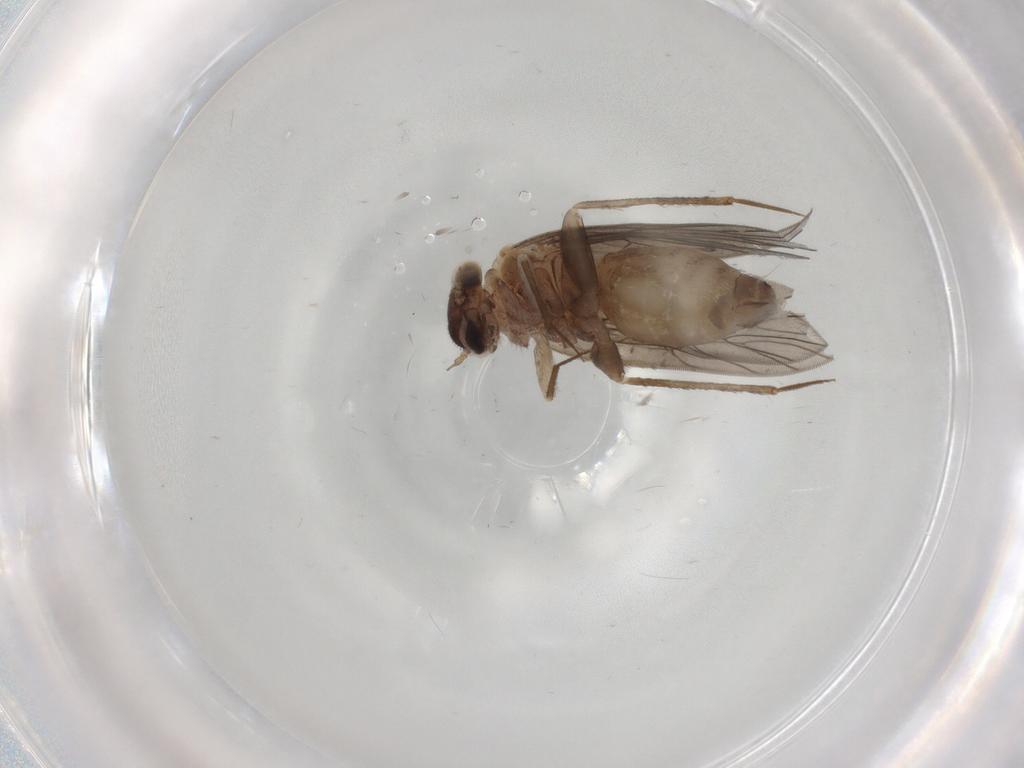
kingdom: Animalia
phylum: Arthropoda
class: Insecta
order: Psocodea
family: Lepidopsocidae
